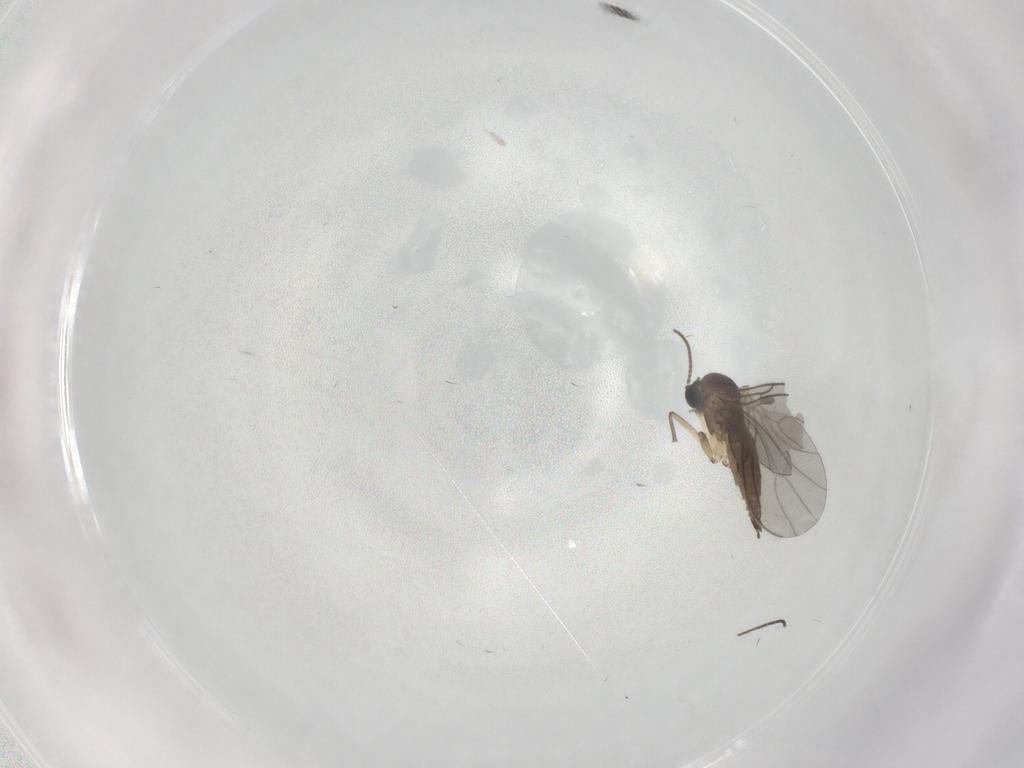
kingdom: Animalia
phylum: Arthropoda
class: Insecta
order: Diptera
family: Sciaridae
